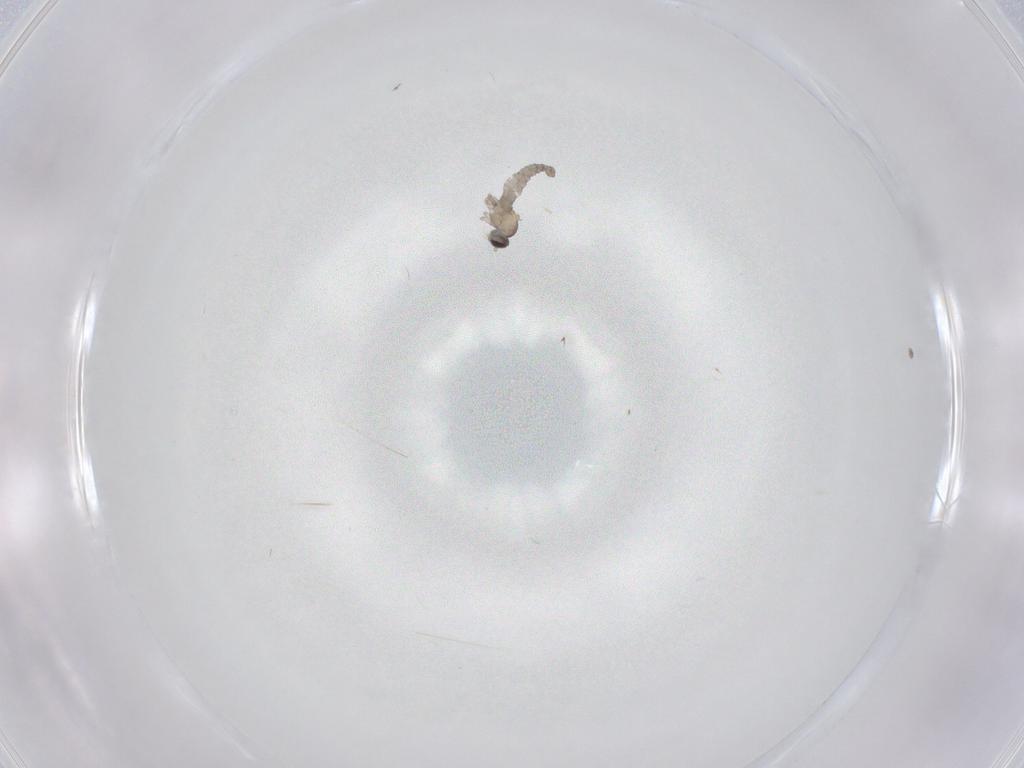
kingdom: Animalia
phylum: Arthropoda
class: Insecta
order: Diptera
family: Cecidomyiidae
